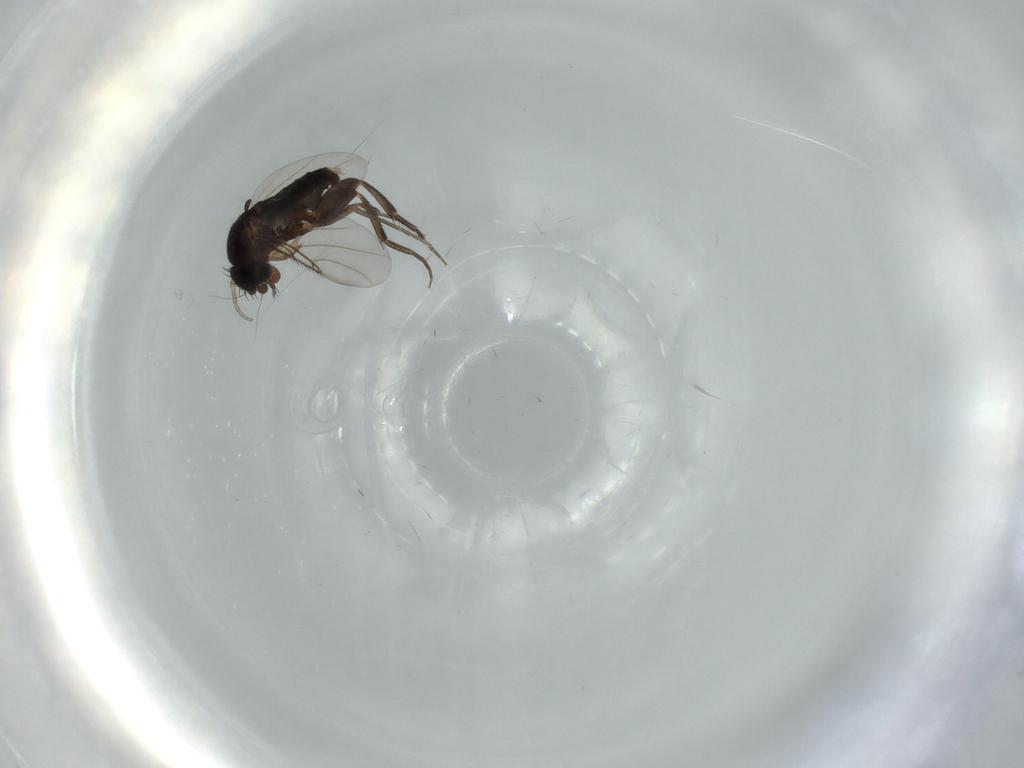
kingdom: Animalia
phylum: Arthropoda
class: Insecta
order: Diptera
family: Phoridae
